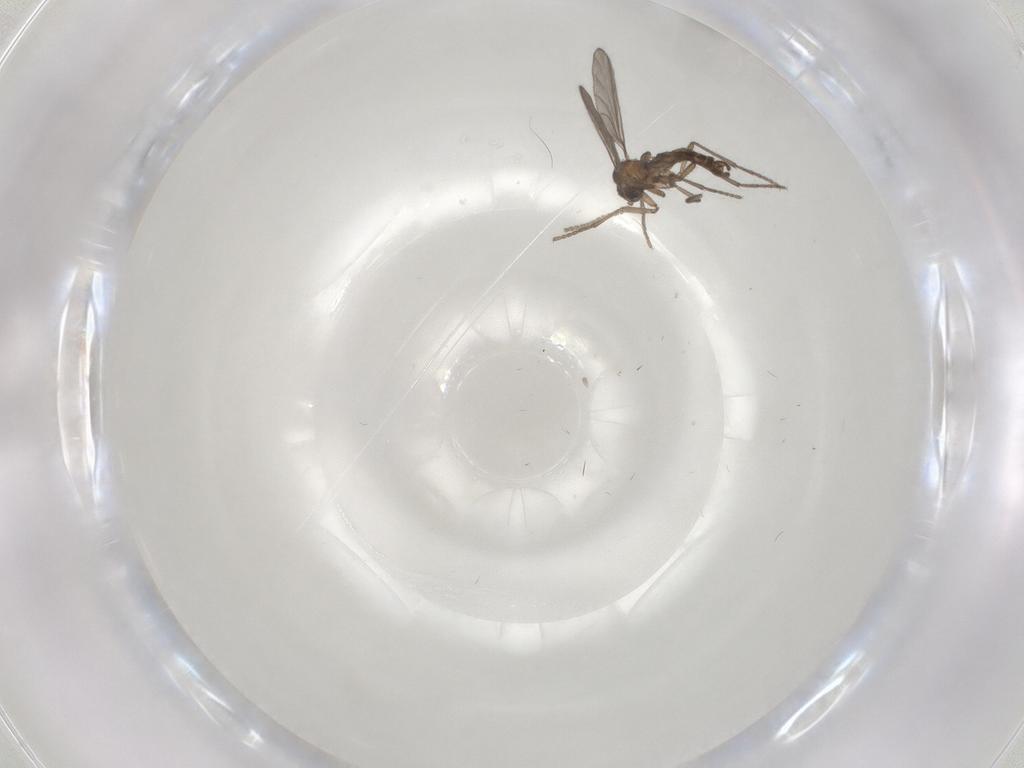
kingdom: Animalia
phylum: Arthropoda
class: Insecta
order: Diptera
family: Sciaridae
